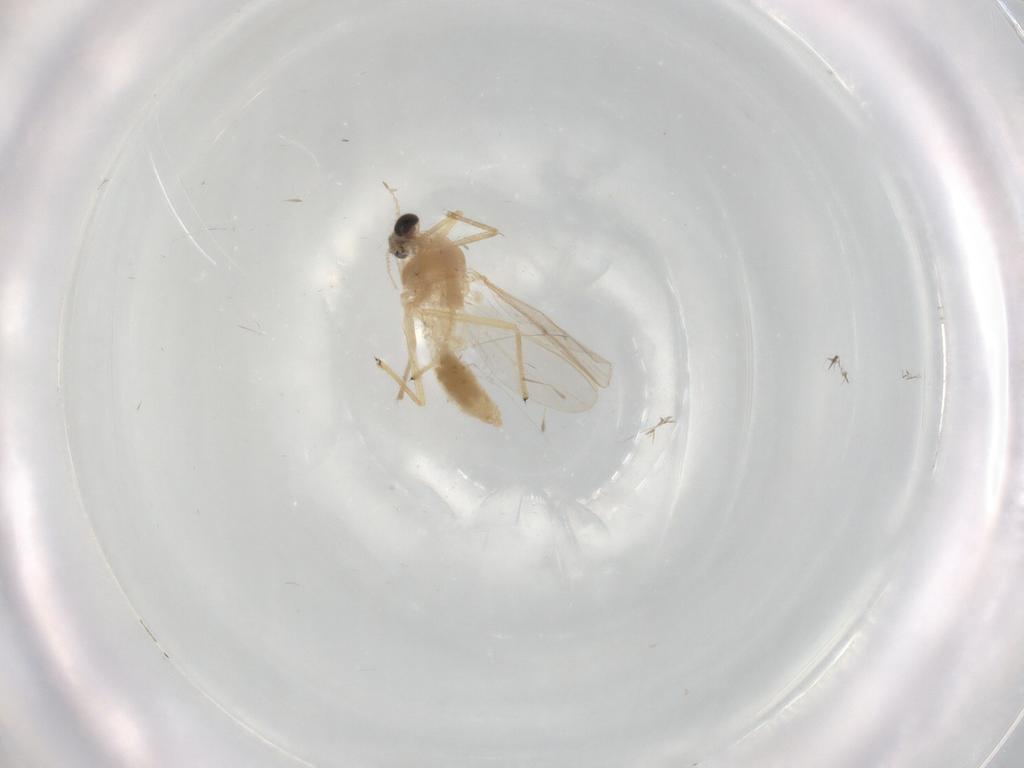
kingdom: Animalia
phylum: Arthropoda
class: Insecta
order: Diptera
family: Chironomidae
